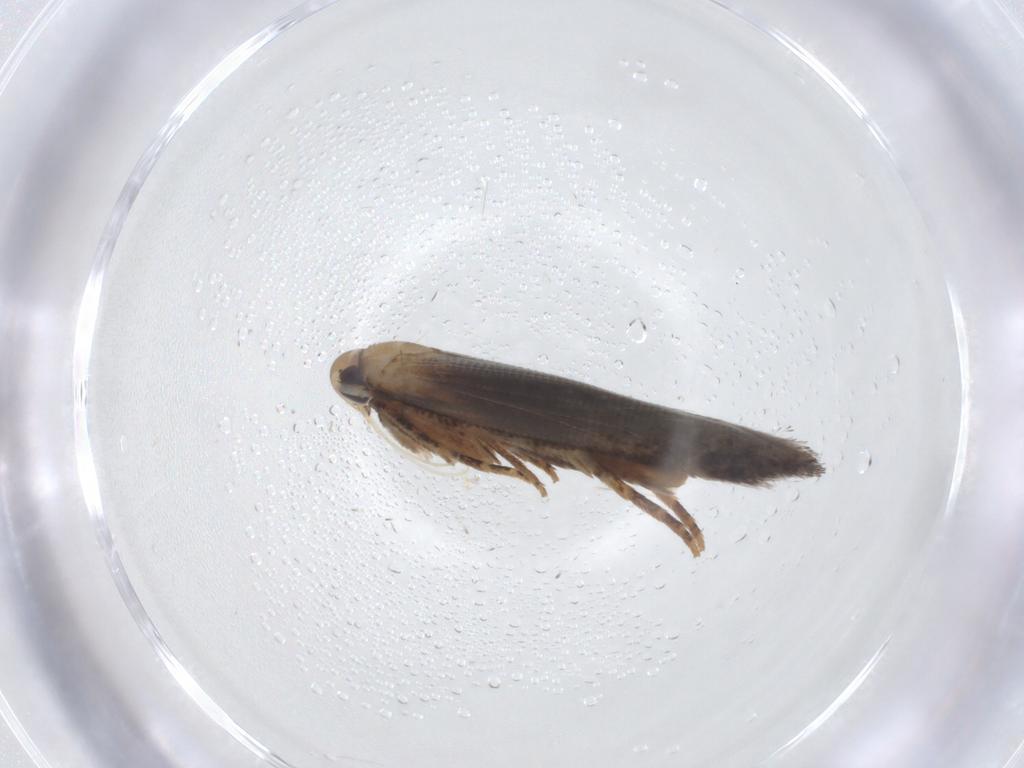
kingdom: Animalia
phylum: Arthropoda
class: Insecta
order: Lepidoptera
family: Cosmopterigidae
